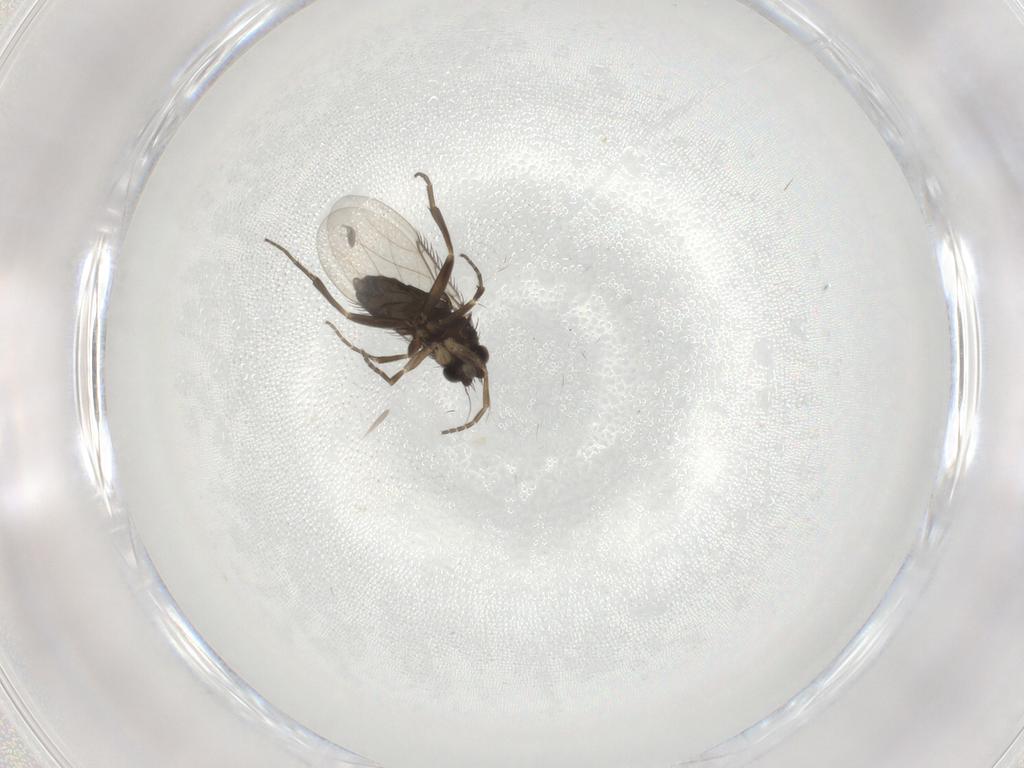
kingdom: Animalia
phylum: Arthropoda
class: Insecta
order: Diptera
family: Phoridae
